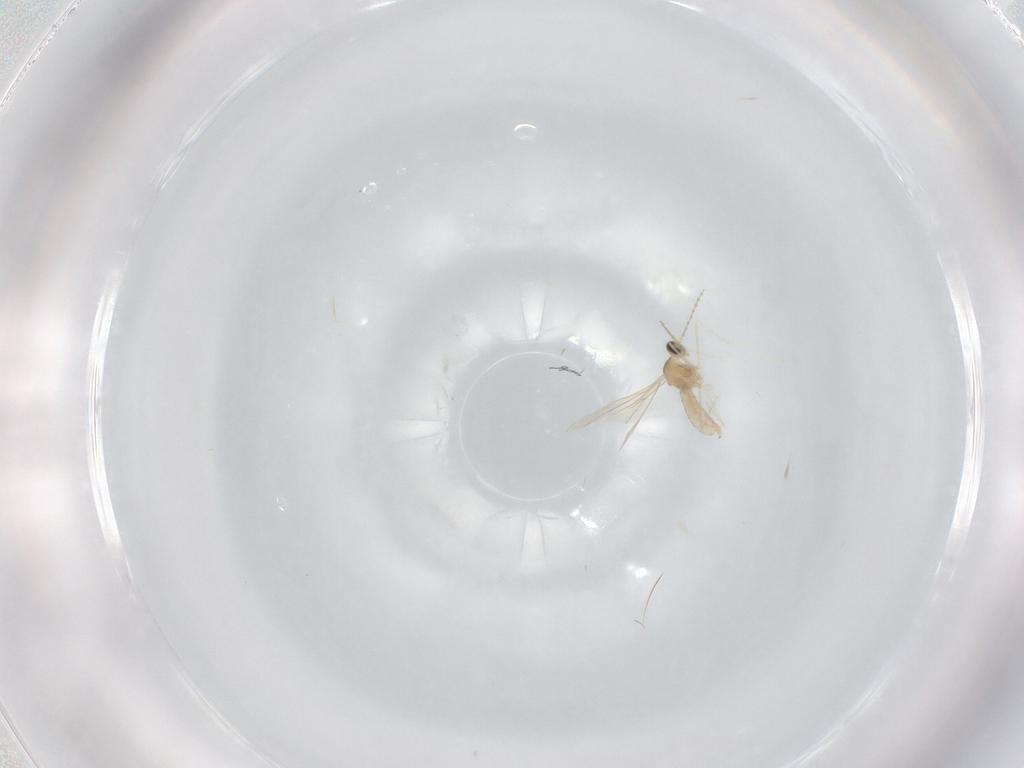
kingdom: Animalia
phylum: Arthropoda
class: Insecta
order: Diptera
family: Cecidomyiidae
